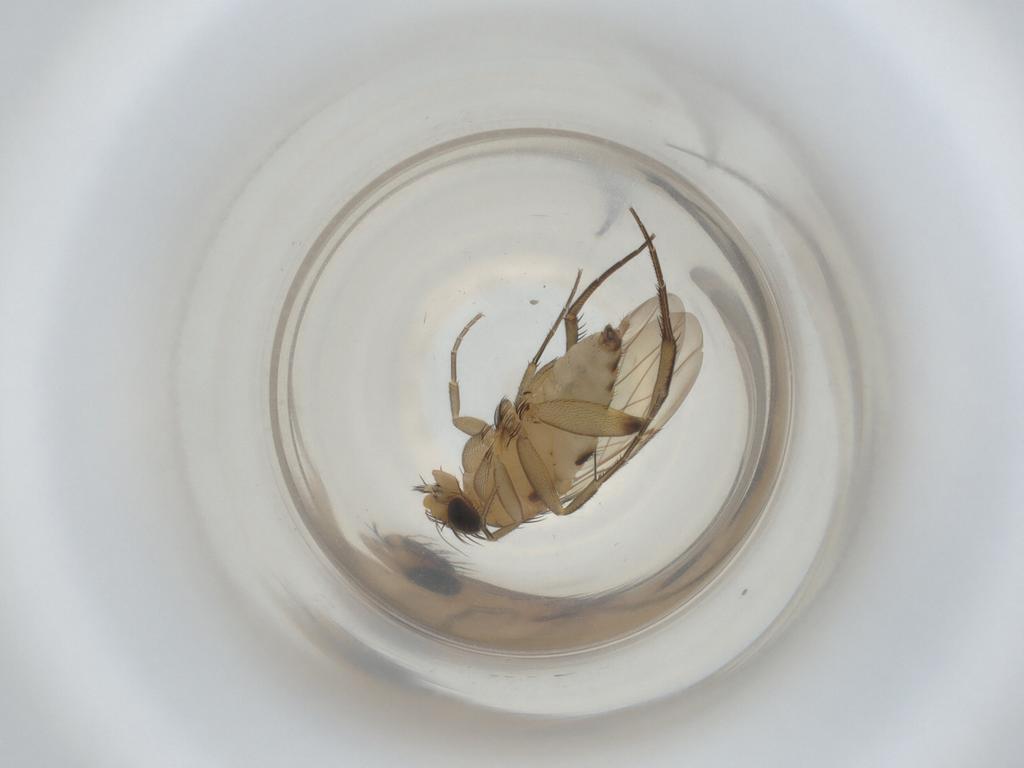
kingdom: Animalia
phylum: Arthropoda
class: Insecta
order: Diptera
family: Phoridae
